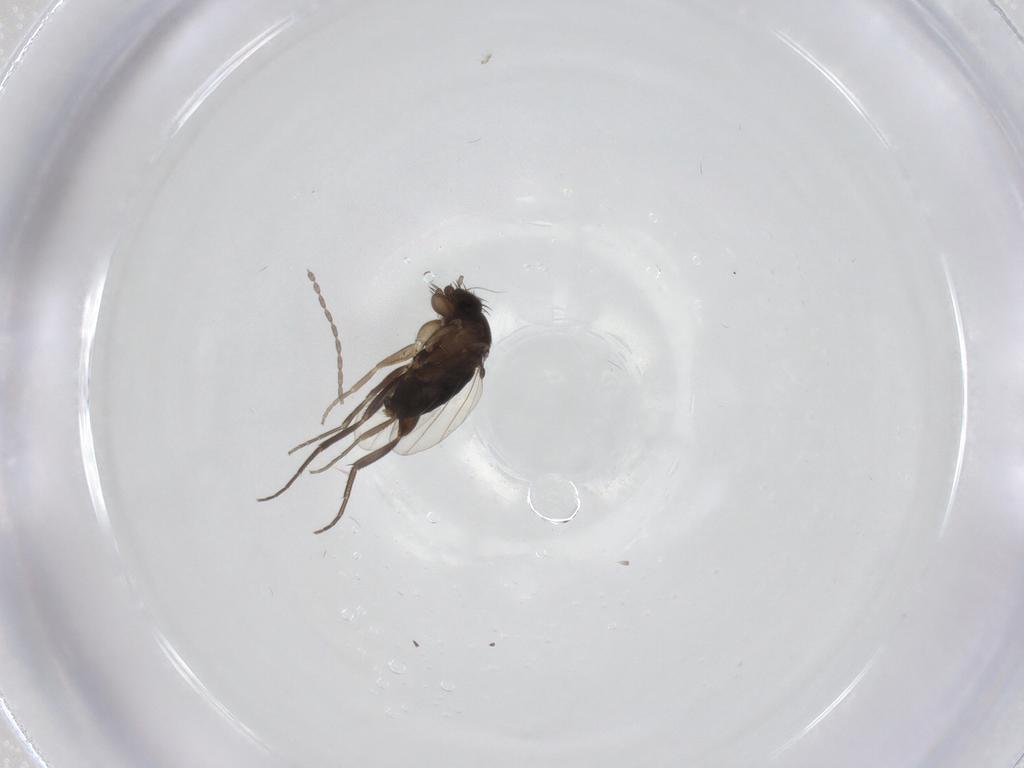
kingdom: Animalia
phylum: Arthropoda
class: Insecta
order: Diptera
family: Phoridae
